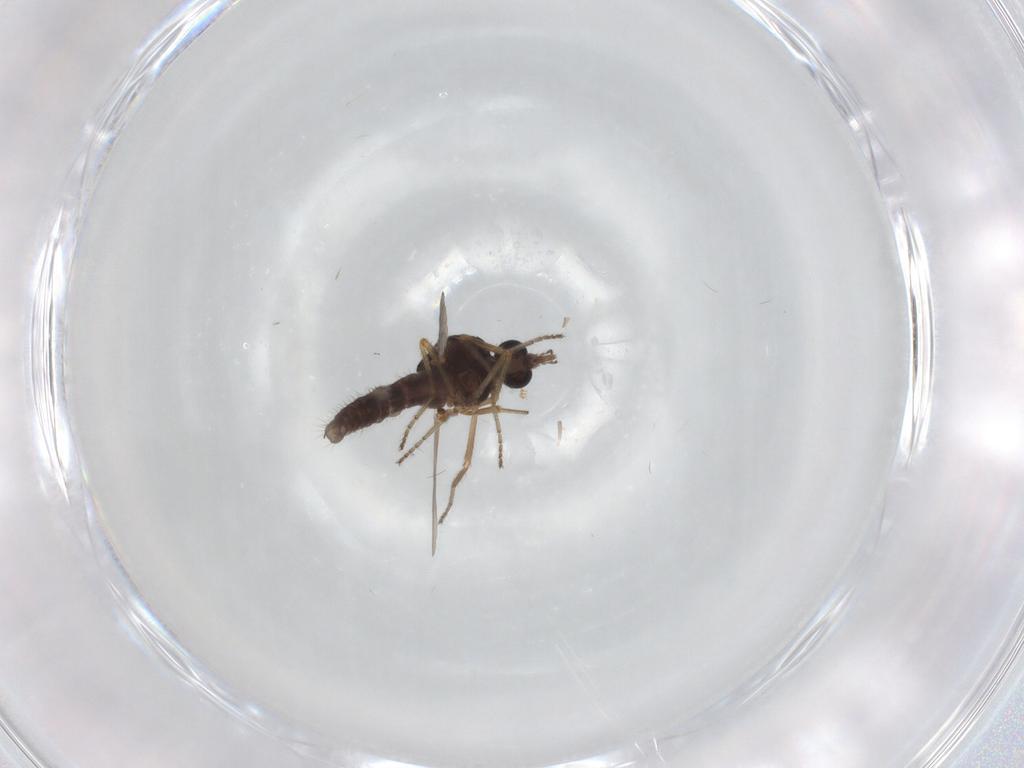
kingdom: Animalia
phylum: Arthropoda
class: Insecta
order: Diptera
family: Ceratopogonidae
